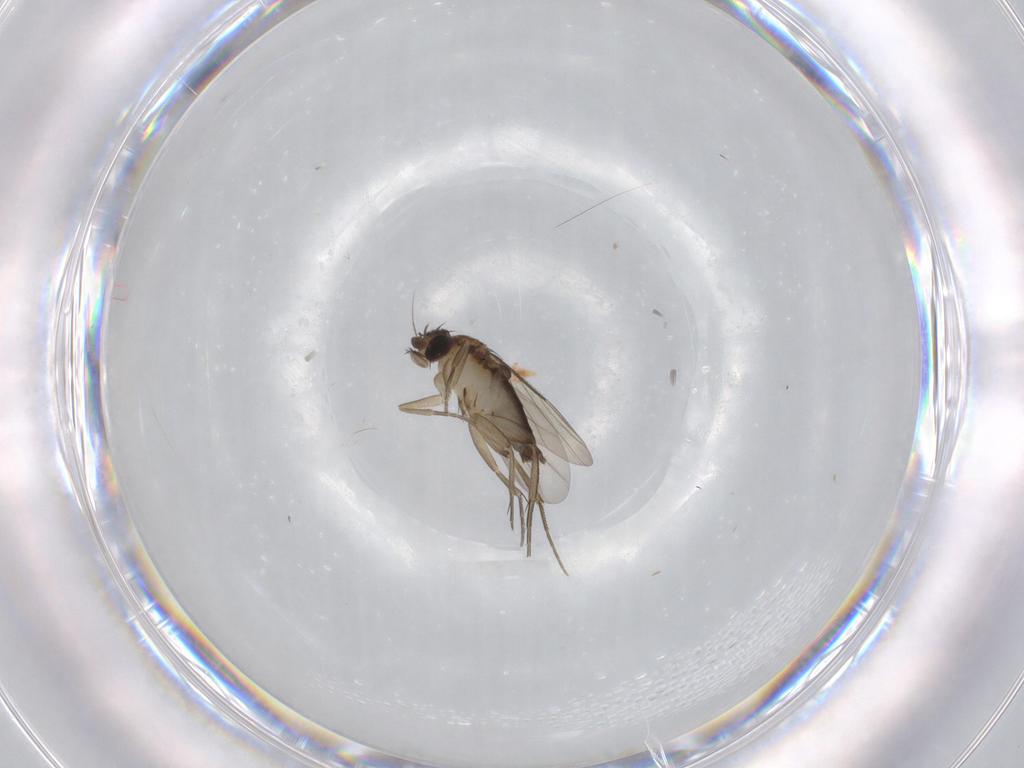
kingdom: Animalia
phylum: Arthropoda
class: Insecta
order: Diptera
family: Phoridae
